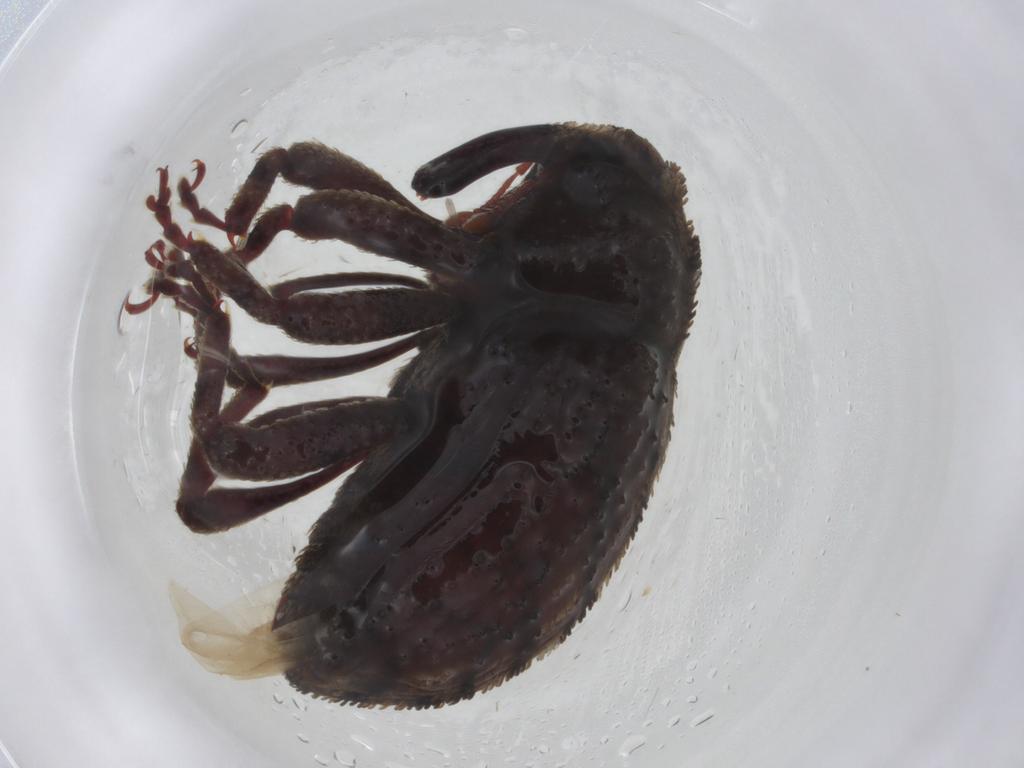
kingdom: Animalia
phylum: Arthropoda
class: Insecta
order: Coleoptera
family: Curculionidae
